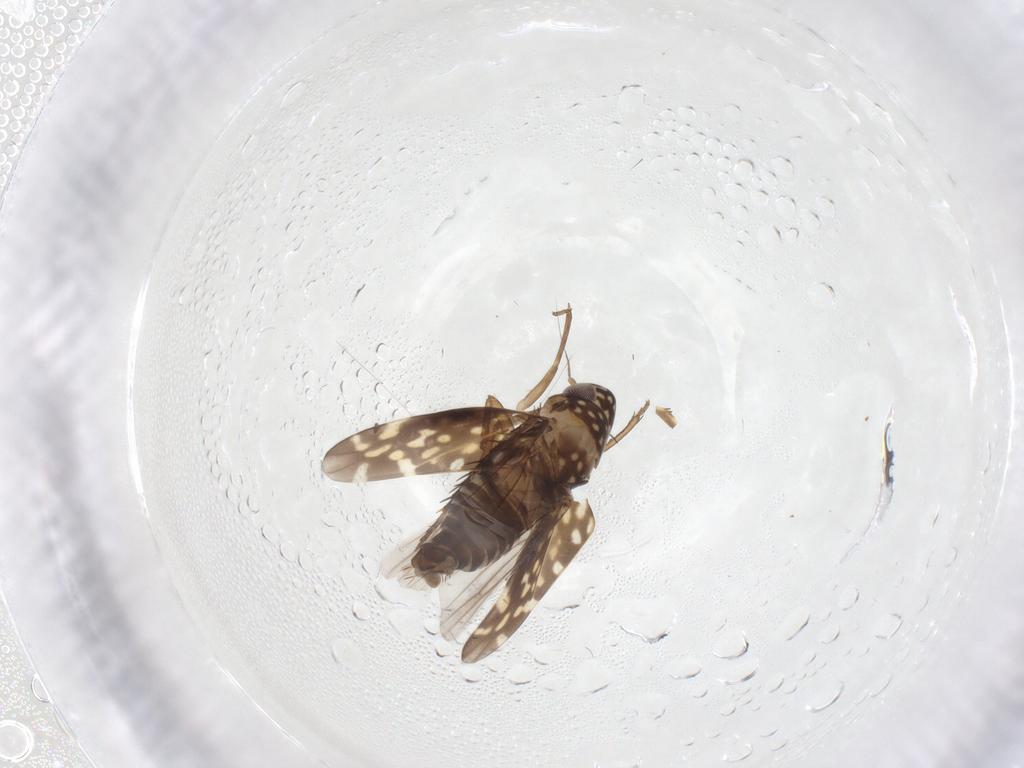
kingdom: Animalia
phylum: Arthropoda
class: Insecta
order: Hemiptera
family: Cicadellidae
